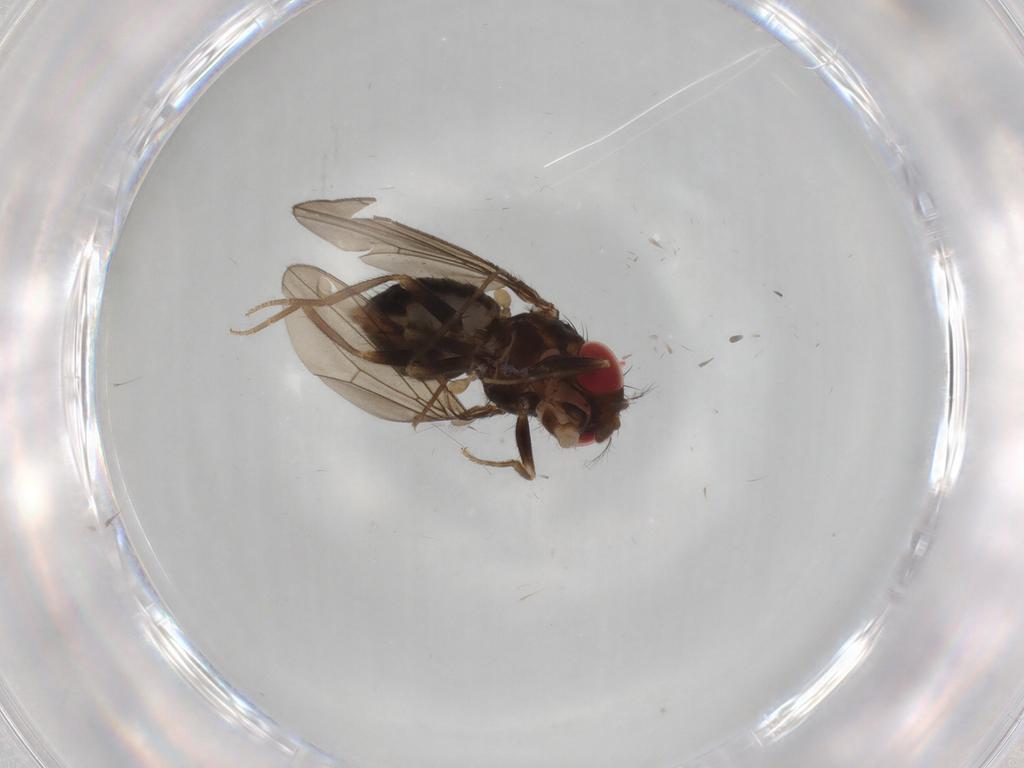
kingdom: Animalia
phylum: Arthropoda
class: Insecta
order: Diptera
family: Drosophilidae
